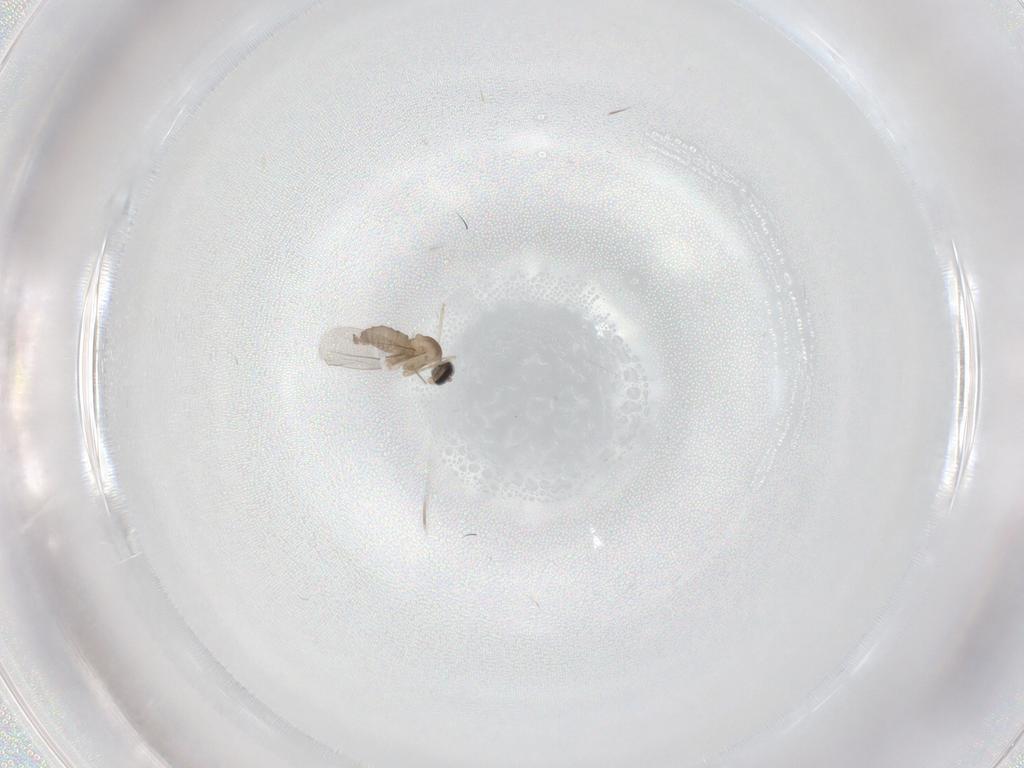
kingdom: Animalia
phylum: Arthropoda
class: Insecta
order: Diptera
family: Cecidomyiidae
